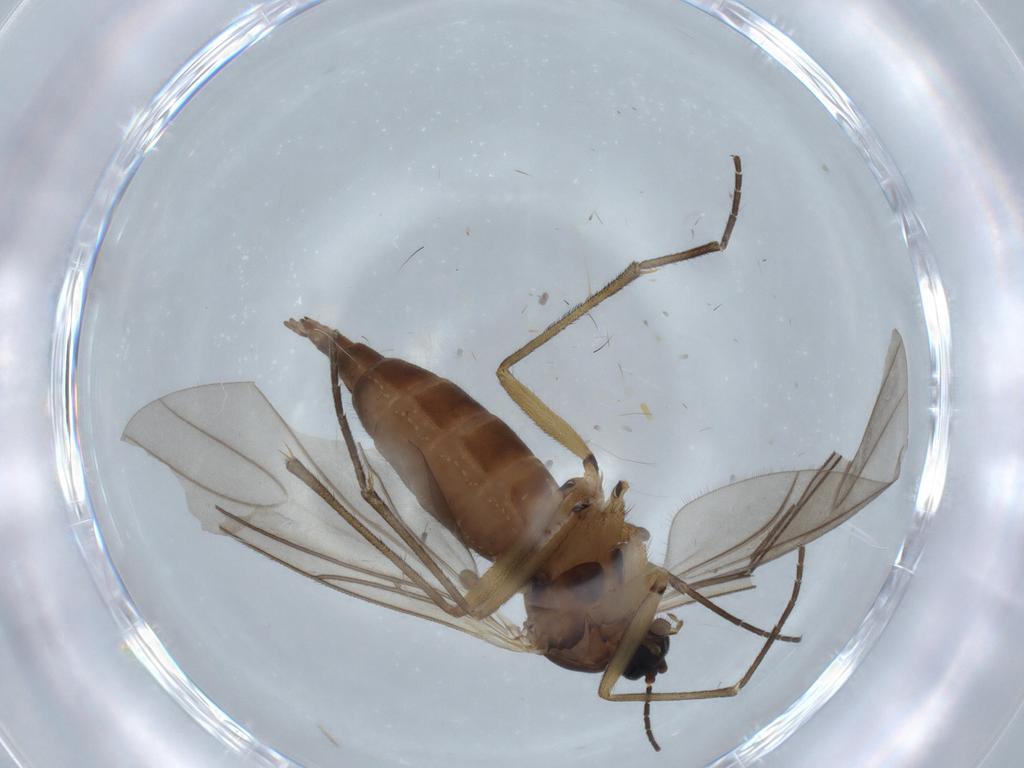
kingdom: Animalia
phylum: Arthropoda
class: Insecta
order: Diptera
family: Sciaridae
